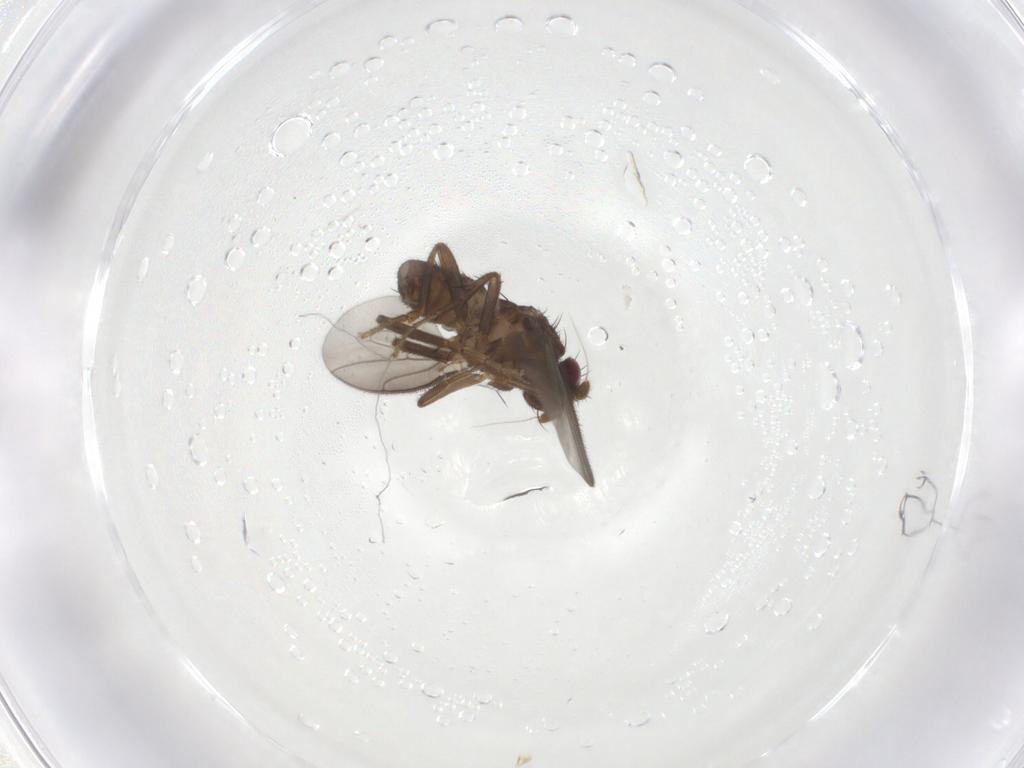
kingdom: Animalia
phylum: Arthropoda
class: Insecta
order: Diptera
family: Sphaeroceridae
